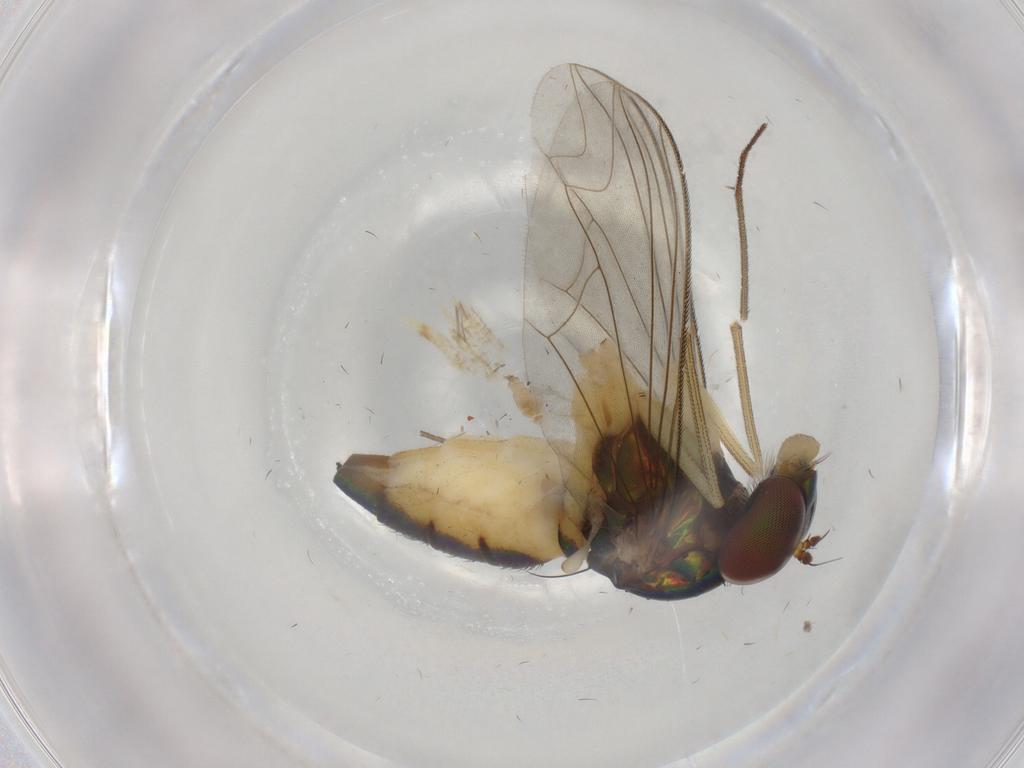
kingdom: Animalia
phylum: Arthropoda
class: Insecta
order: Diptera
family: Dolichopodidae
